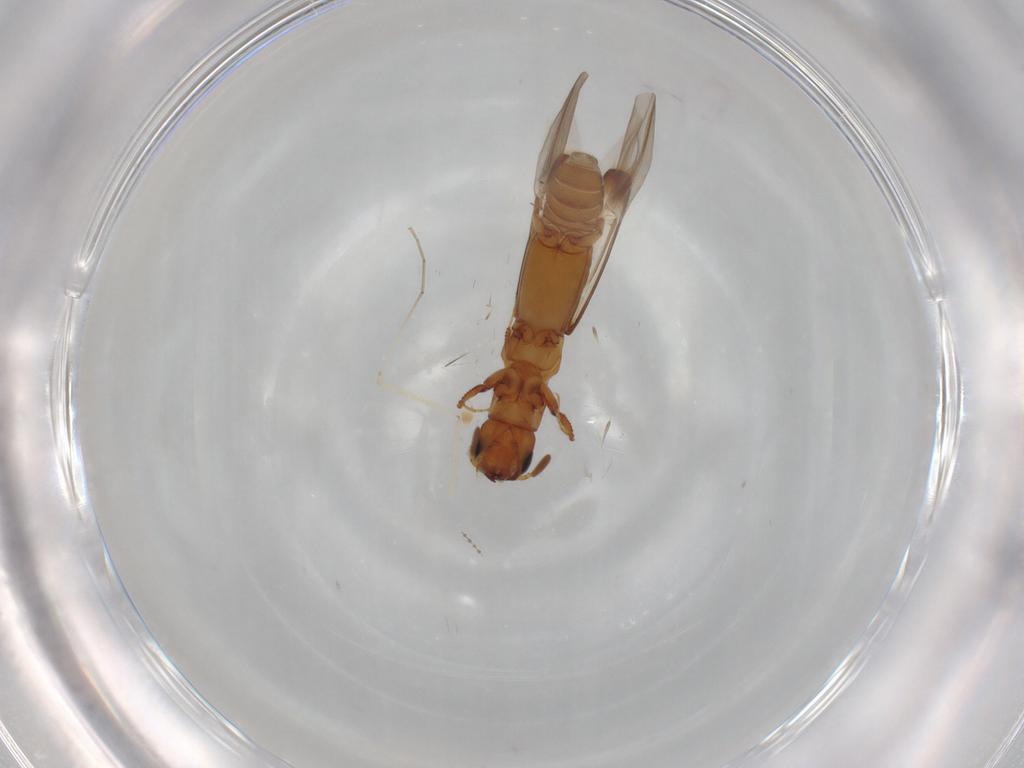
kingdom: Animalia
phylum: Arthropoda
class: Insecta
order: Coleoptera
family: Curculionidae
